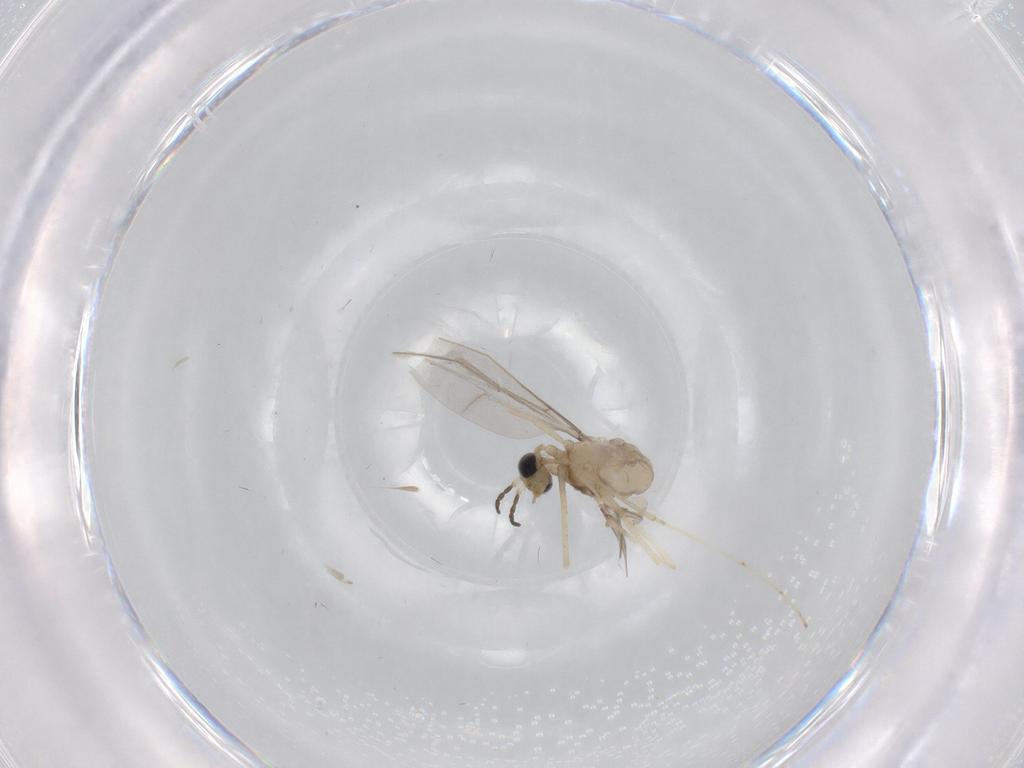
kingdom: Animalia
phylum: Arthropoda
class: Insecta
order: Diptera
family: Cecidomyiidae
